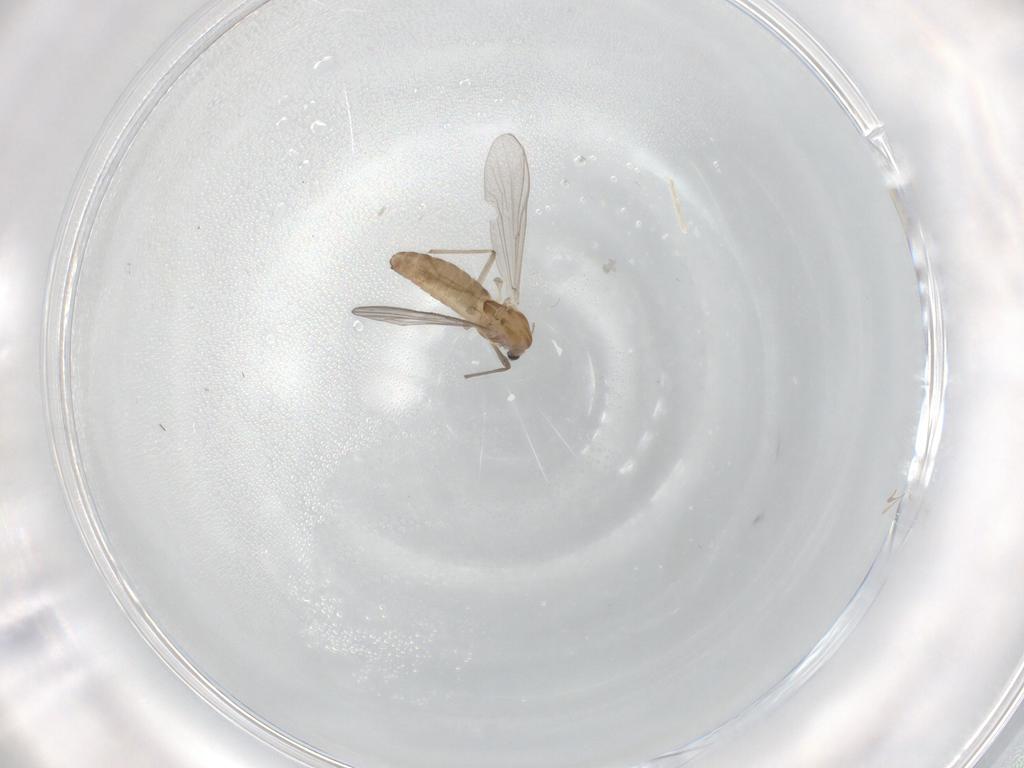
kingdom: Animalia
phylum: Arthropoda
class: Insecta
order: Diptera
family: Chironomidae
